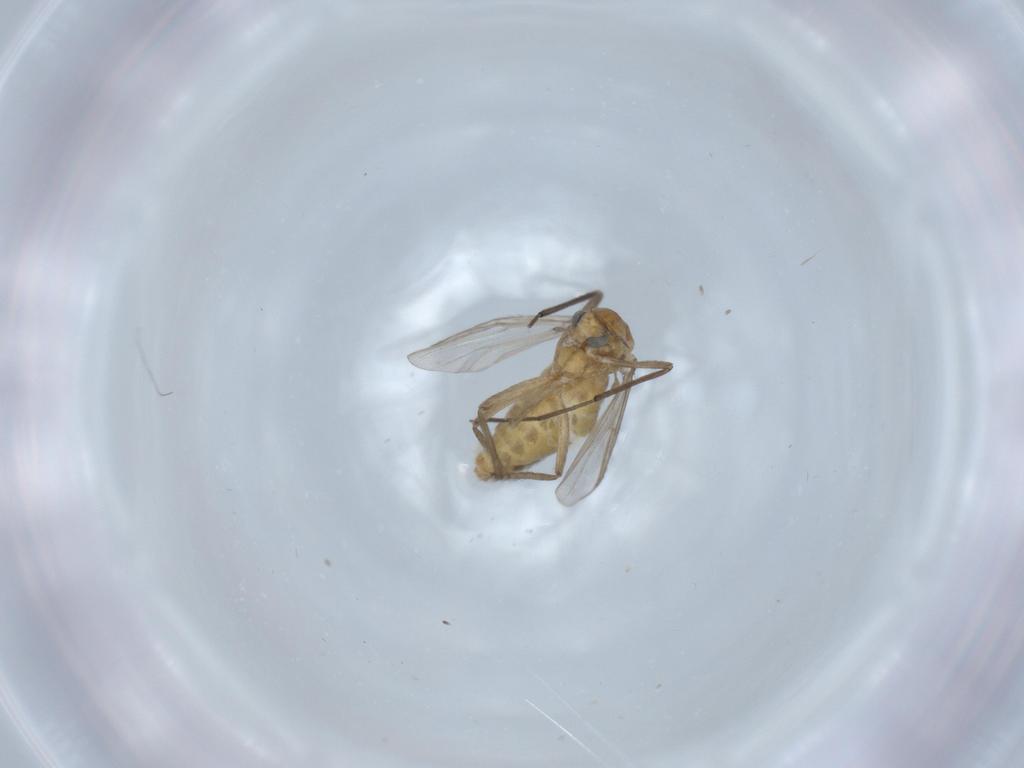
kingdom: Animalia
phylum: Arthropoda
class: Insecta
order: Diptera
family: Chironomidae
